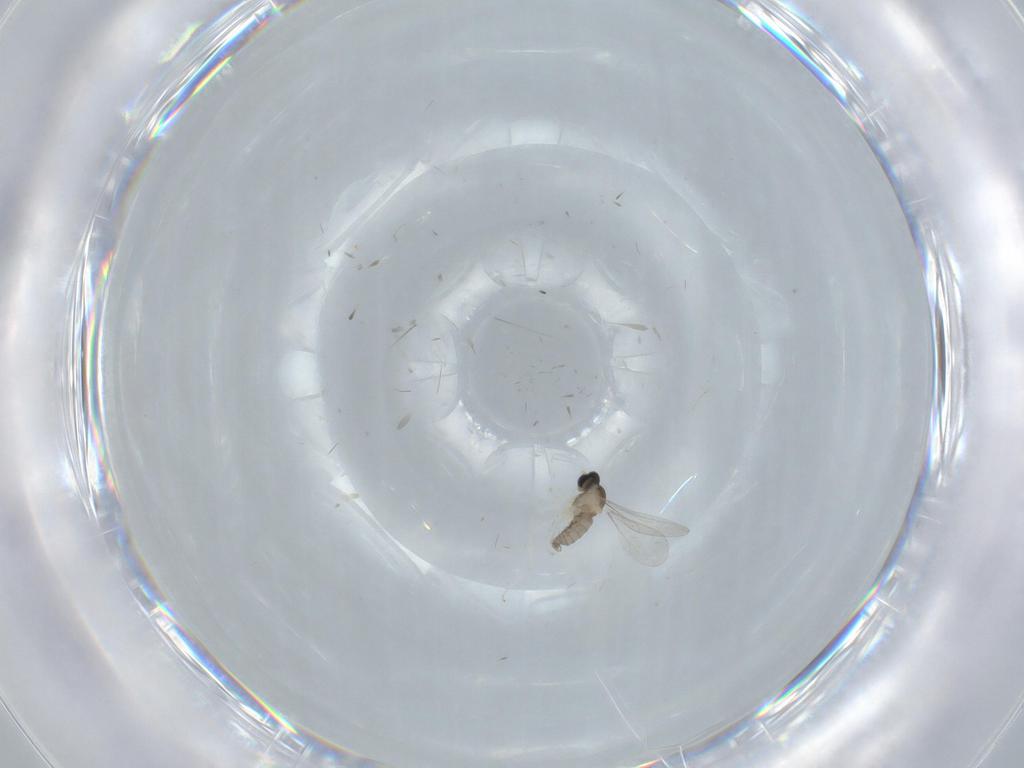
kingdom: Animalia
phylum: Arthropoda
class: Insecta
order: Diptera
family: Cecidomyiidae
